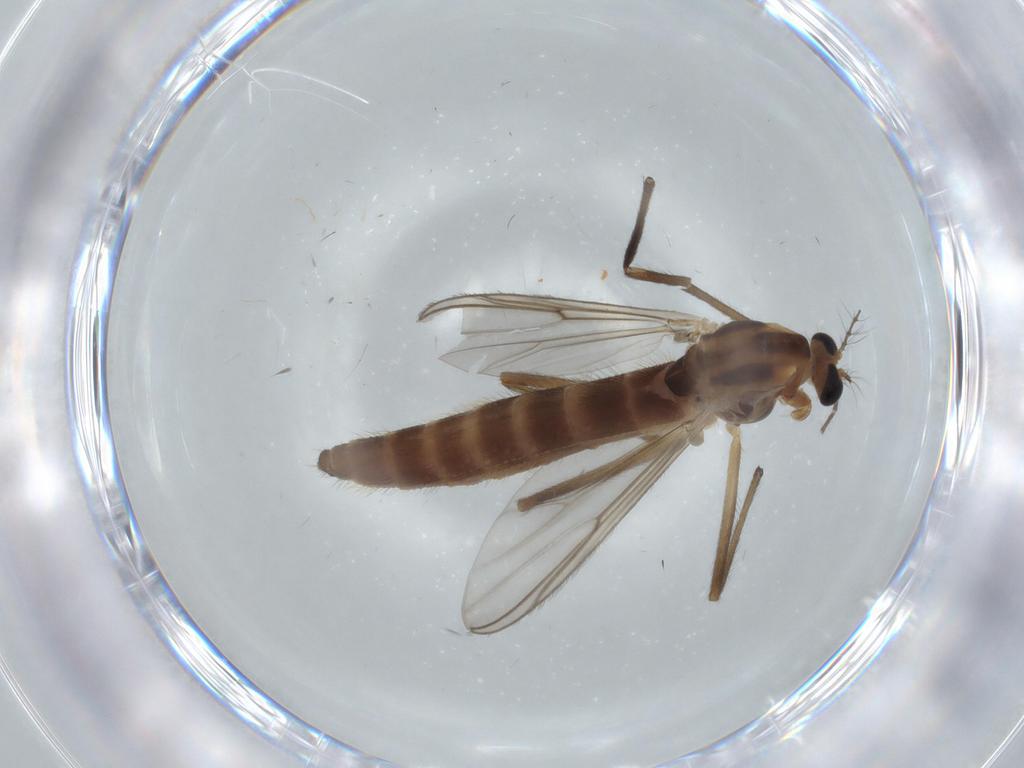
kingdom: Animalia
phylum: Arthropoda
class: Insecta
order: Diptera
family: Chironomidae
